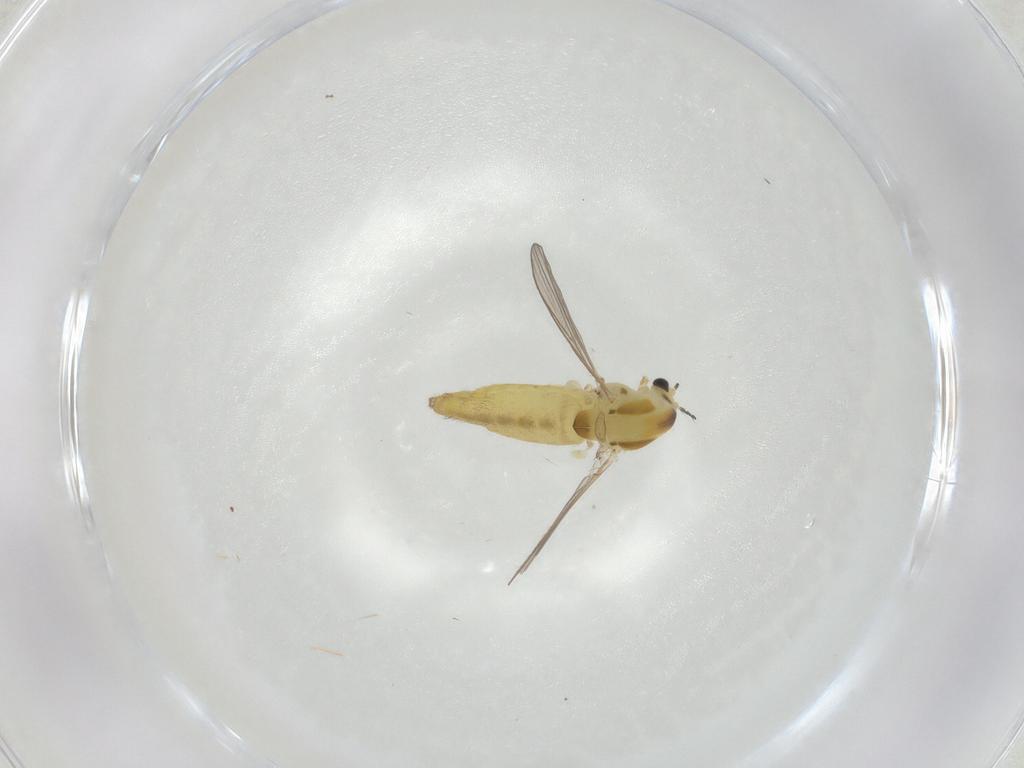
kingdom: Animalia
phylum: Arthropoda
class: Insecta
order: Diptera
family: Chironomidae
